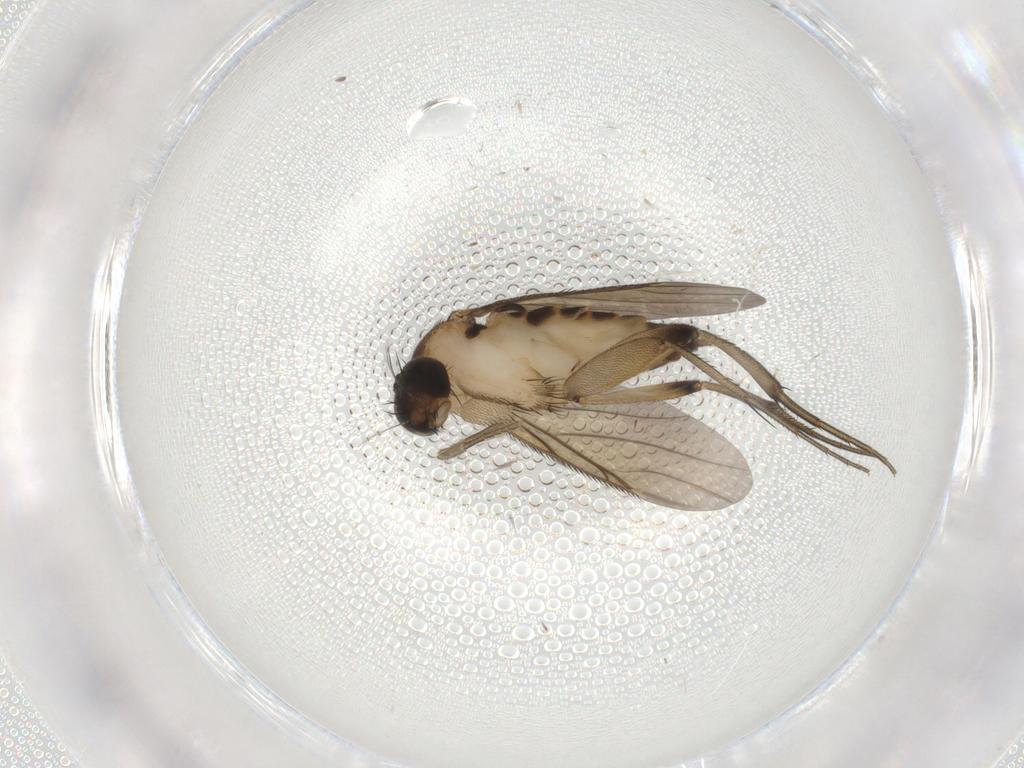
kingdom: Animalia
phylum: Arthropoda
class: Insecta
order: Diptera
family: Phoridae
